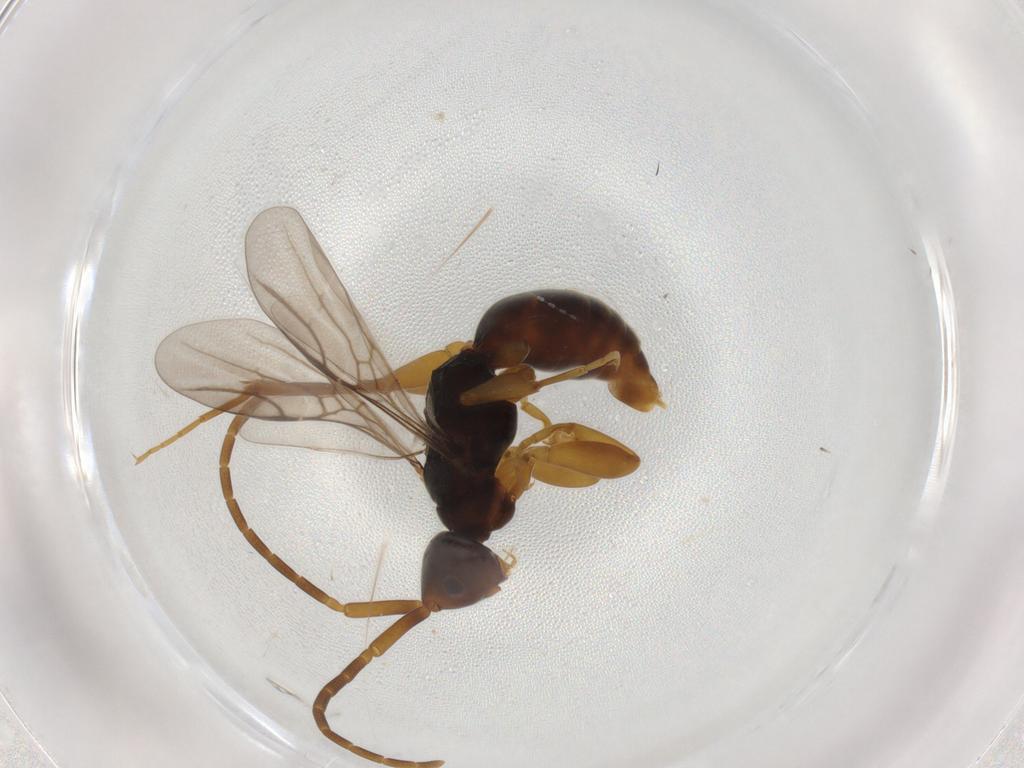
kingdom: Animalia
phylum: Arthropoda
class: Insecta
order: Hymenoptera
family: Embolemidae
